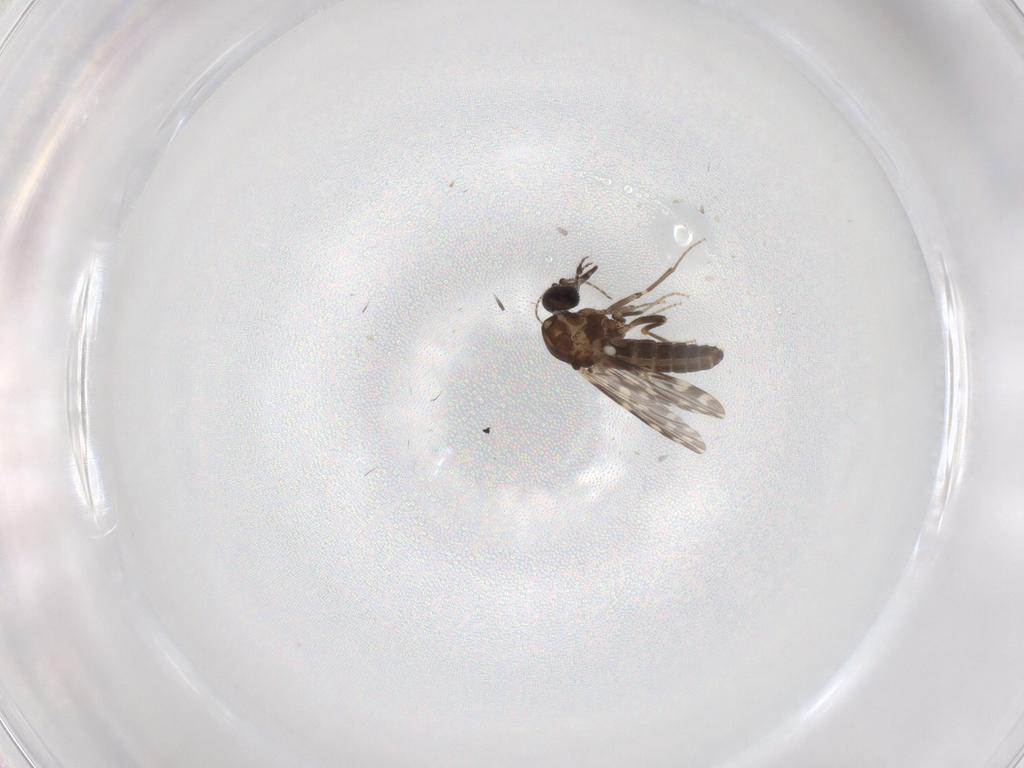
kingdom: Animalia
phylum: Arthropoda
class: Insecta
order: Diptera
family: Ceratopogonidae
